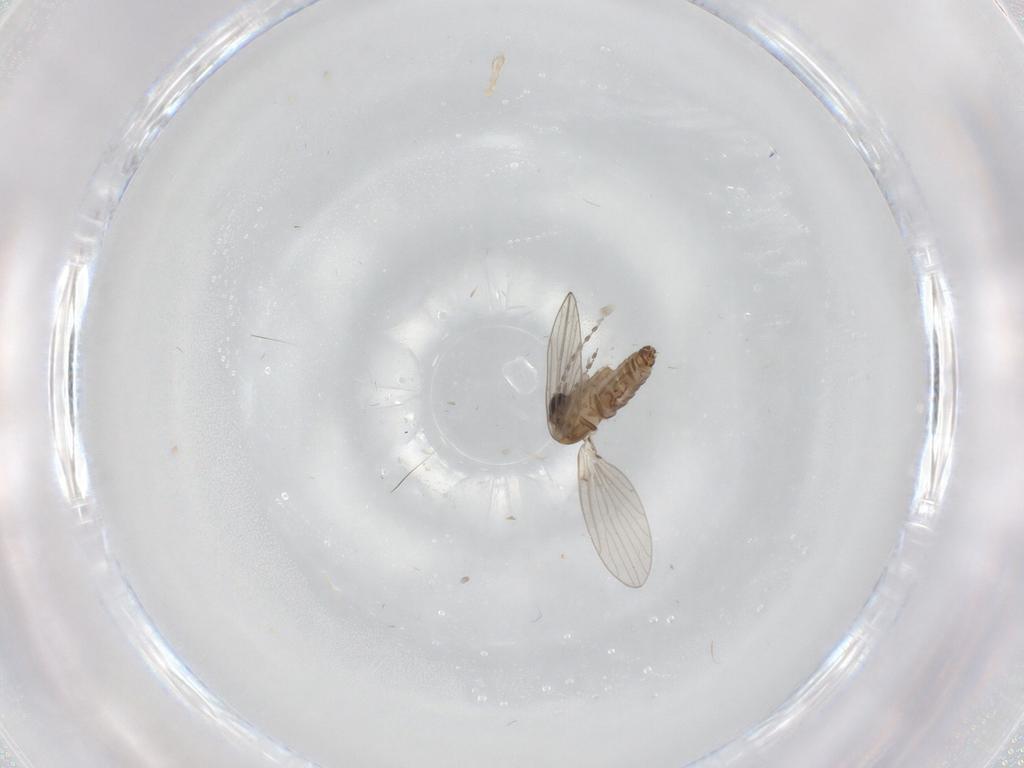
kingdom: Animalia
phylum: Arthropoda
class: Insecta
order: Diptera
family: Psychodidae
